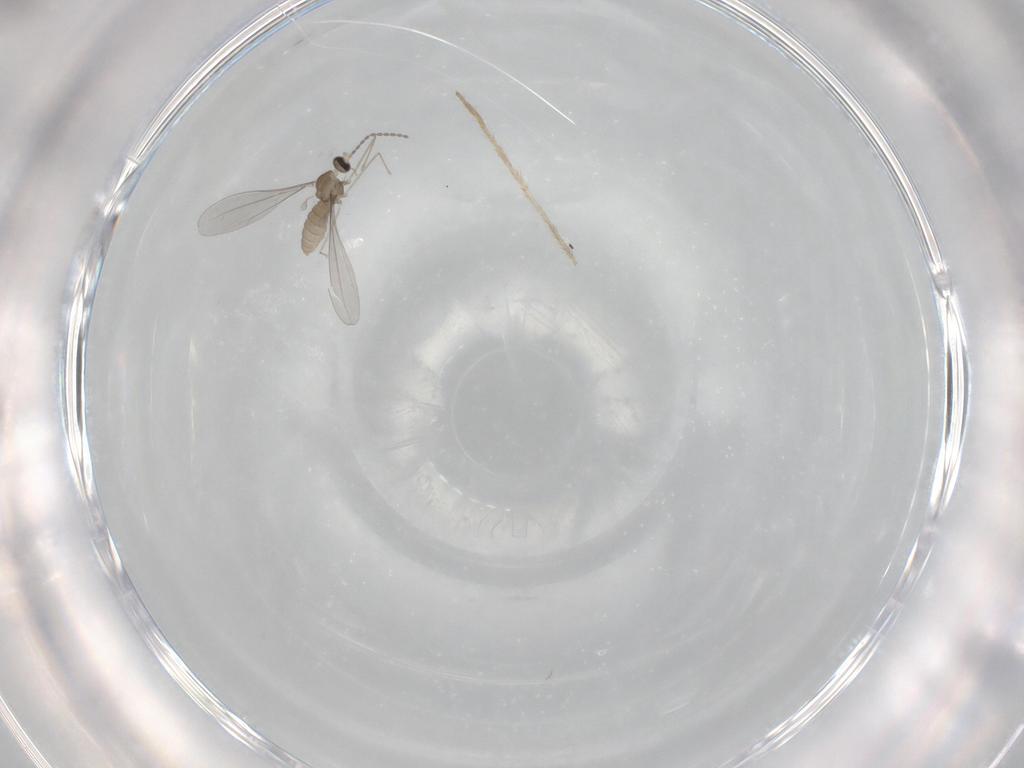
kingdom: Animalia
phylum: Arthropoda
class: Insecta
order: Diptera
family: Chironomidae
